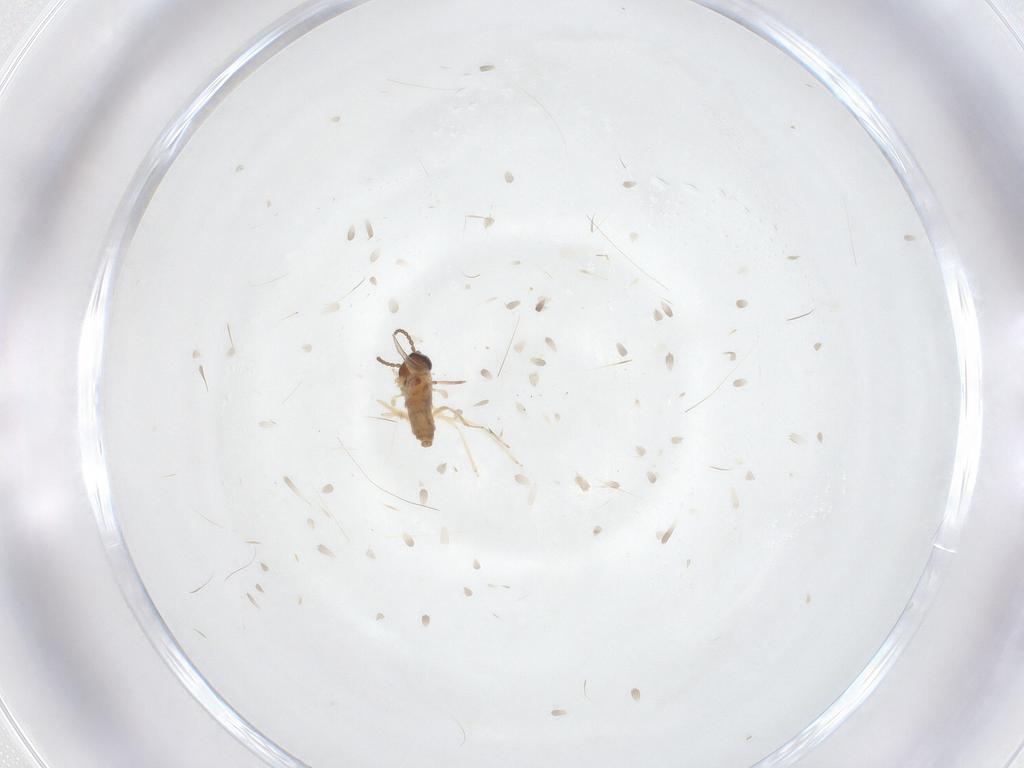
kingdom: Animalia
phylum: Arthropoda
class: Insecta
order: Diptera
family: Cecidomyiidae
